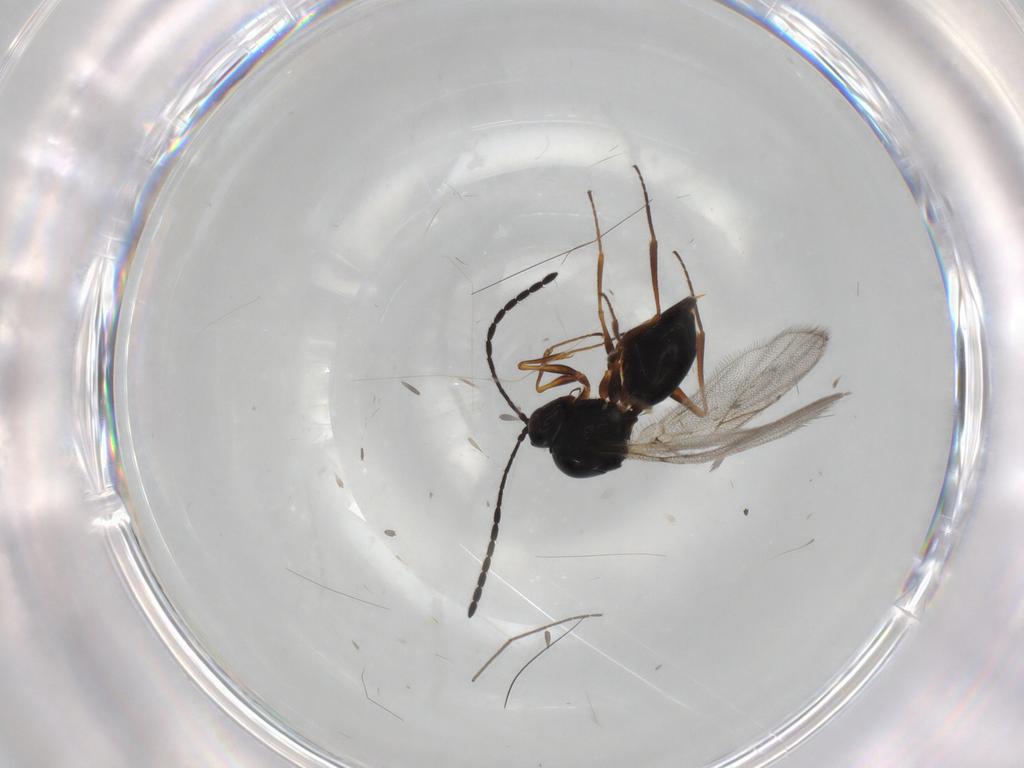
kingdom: Animalia
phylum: Arthropoda
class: Insecta
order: Hymenoptera
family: Figitidae
